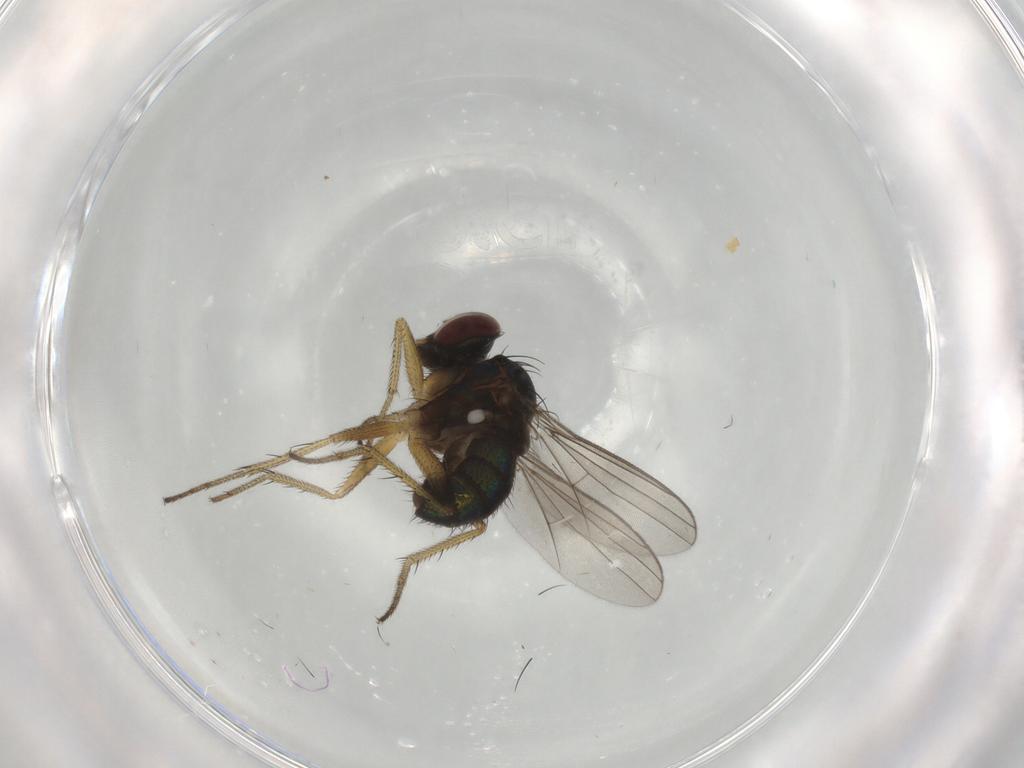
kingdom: Animalia
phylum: Arthropoda
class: Insecta
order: Diptera
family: Dolichopodidae
